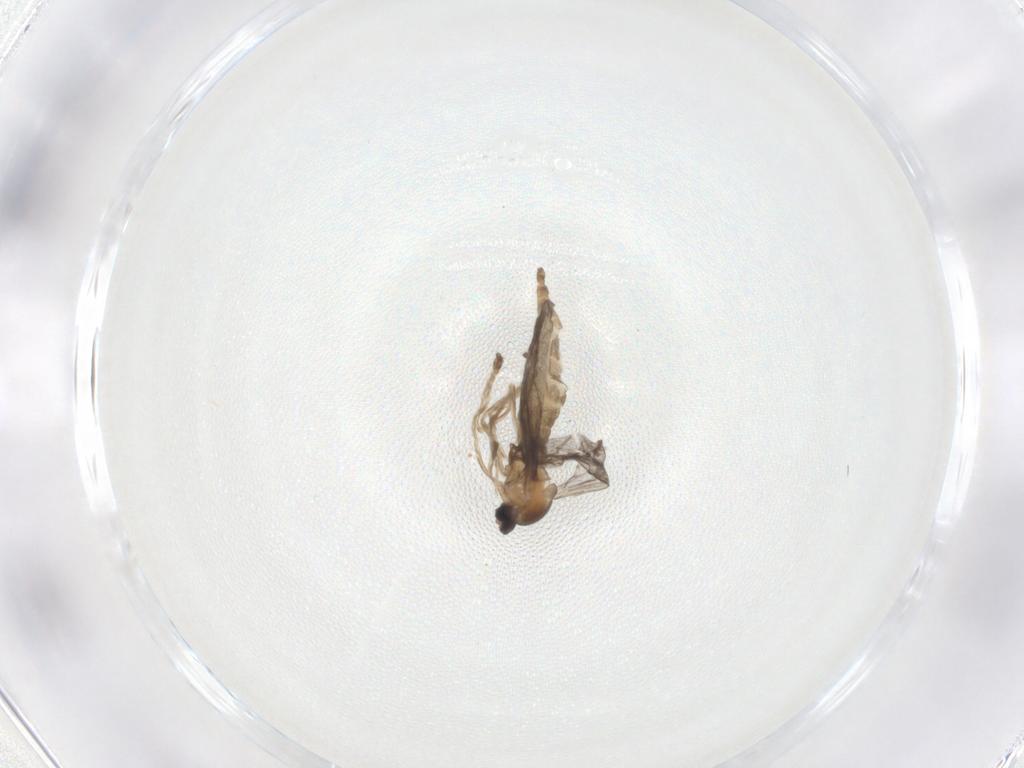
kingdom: Animalia
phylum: Arthropoda
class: Insecta
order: Diptera
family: Cecidomyiidae
